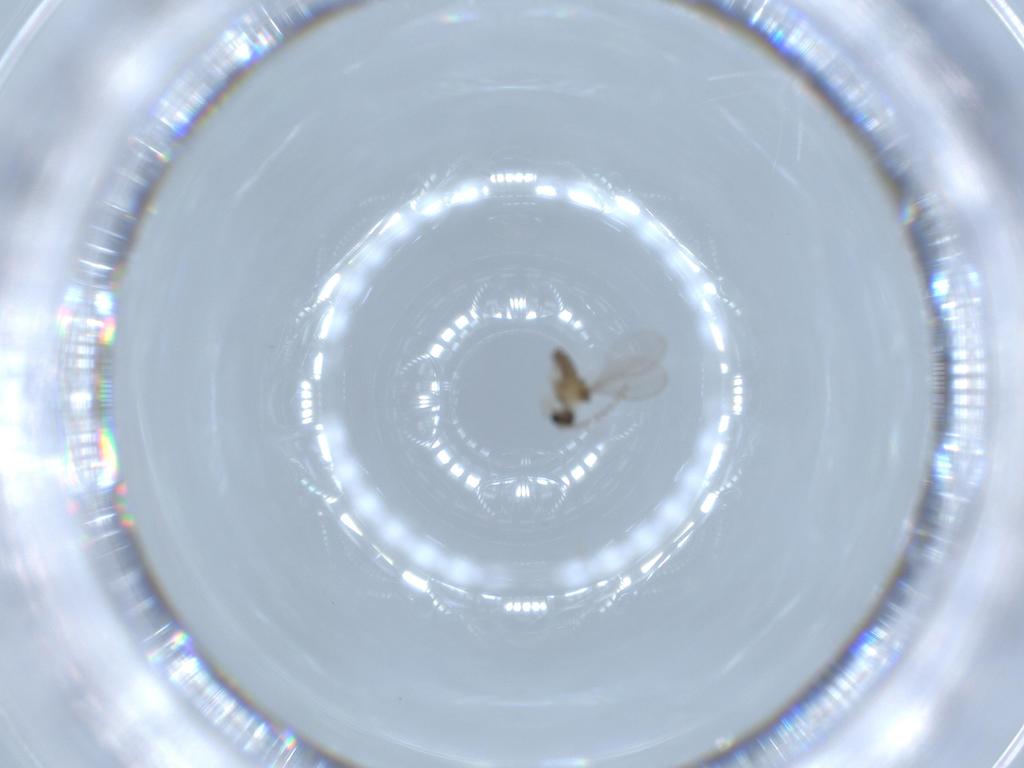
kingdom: Animalia
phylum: Arthropoda
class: Insecta
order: Diptera
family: Cecidomyiidae
